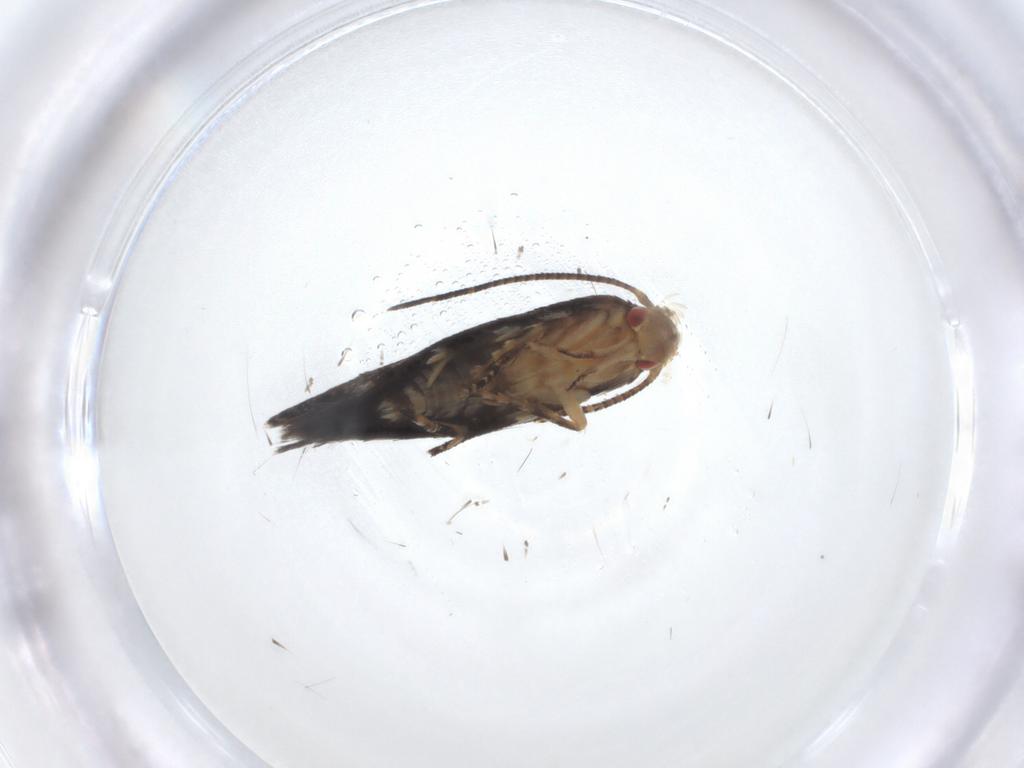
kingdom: Animalia
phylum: Arthropoda
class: Insecta
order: Lepidoptera
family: Momphidae
